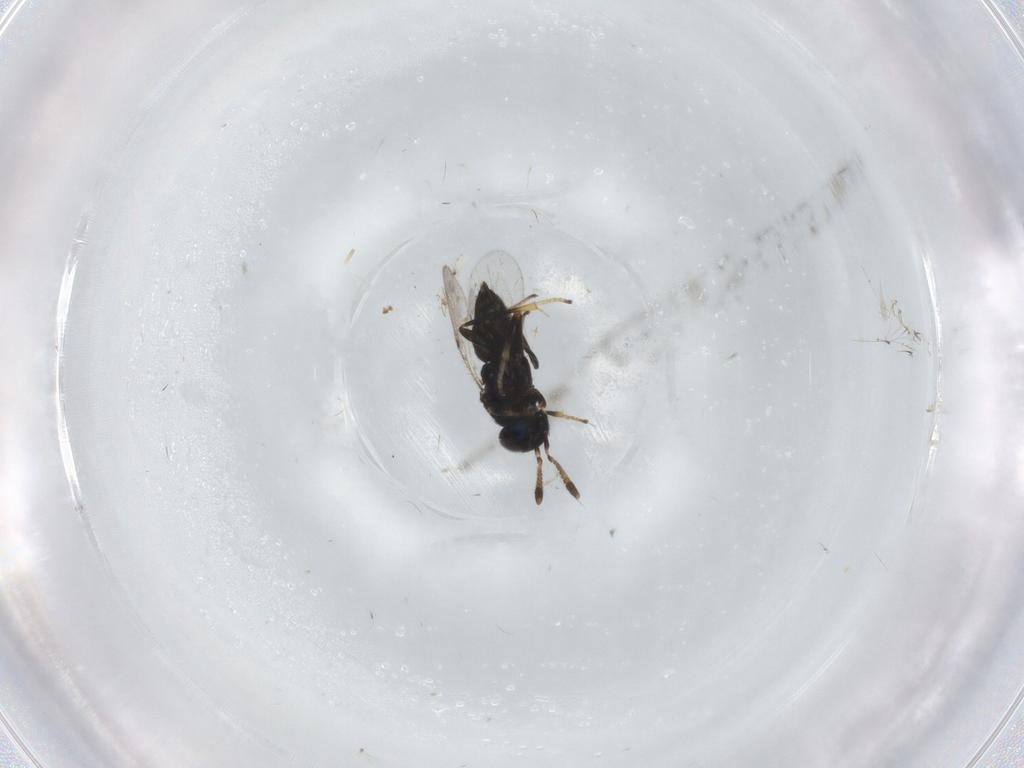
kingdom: Animalia
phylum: Arthropoda
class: Insecta
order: Hymenoptera
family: Encyrtidae
